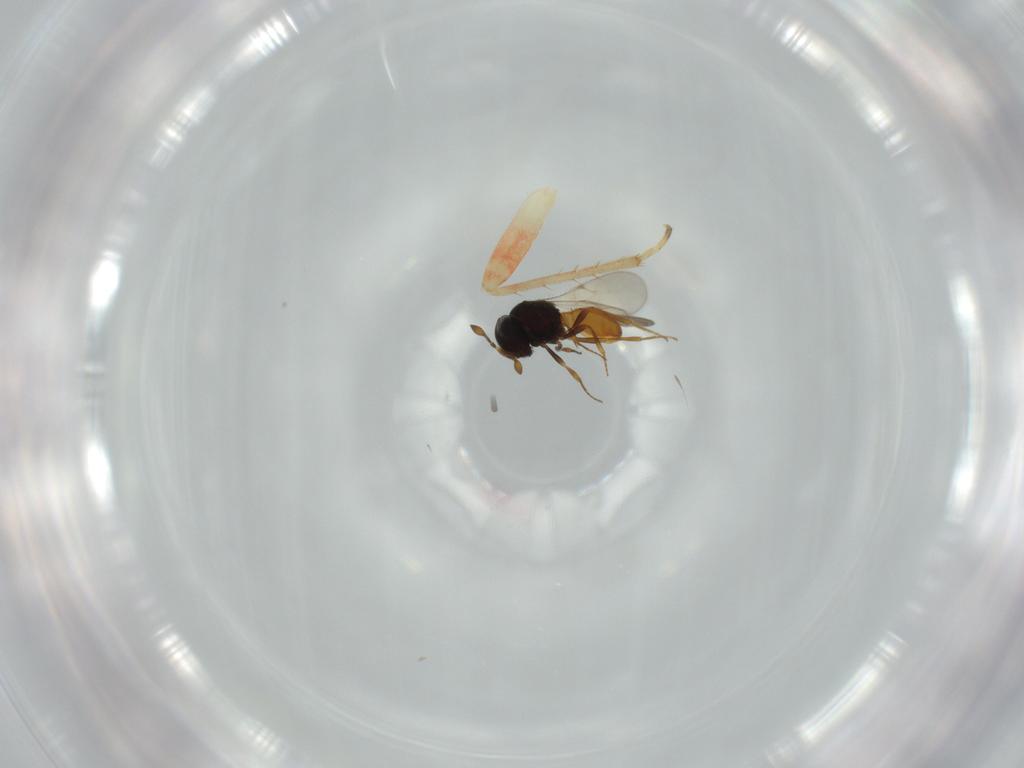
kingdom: Animalia
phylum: Arthropoda
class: Insecta
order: Hymenoptera
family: Scelionidae
